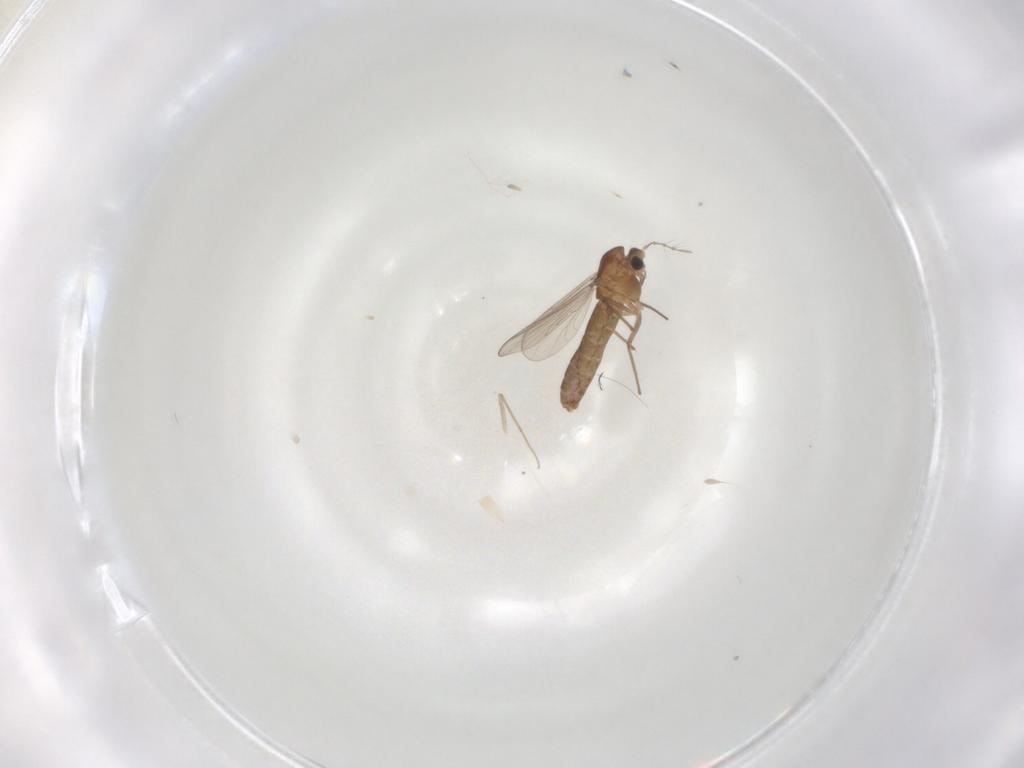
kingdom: Animalia
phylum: Arthropoda
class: Insecta
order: Diptera
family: Chironomidae
